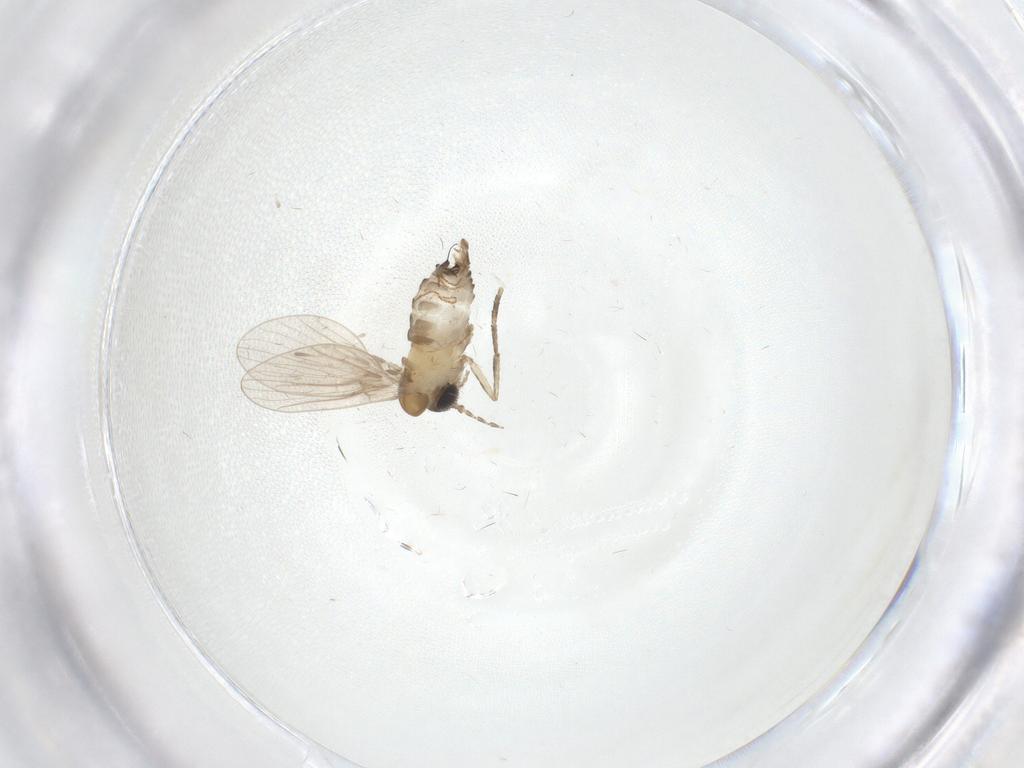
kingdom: Animalia
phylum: Arthropoda
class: Insecta
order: Diptera
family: Psychodidae
